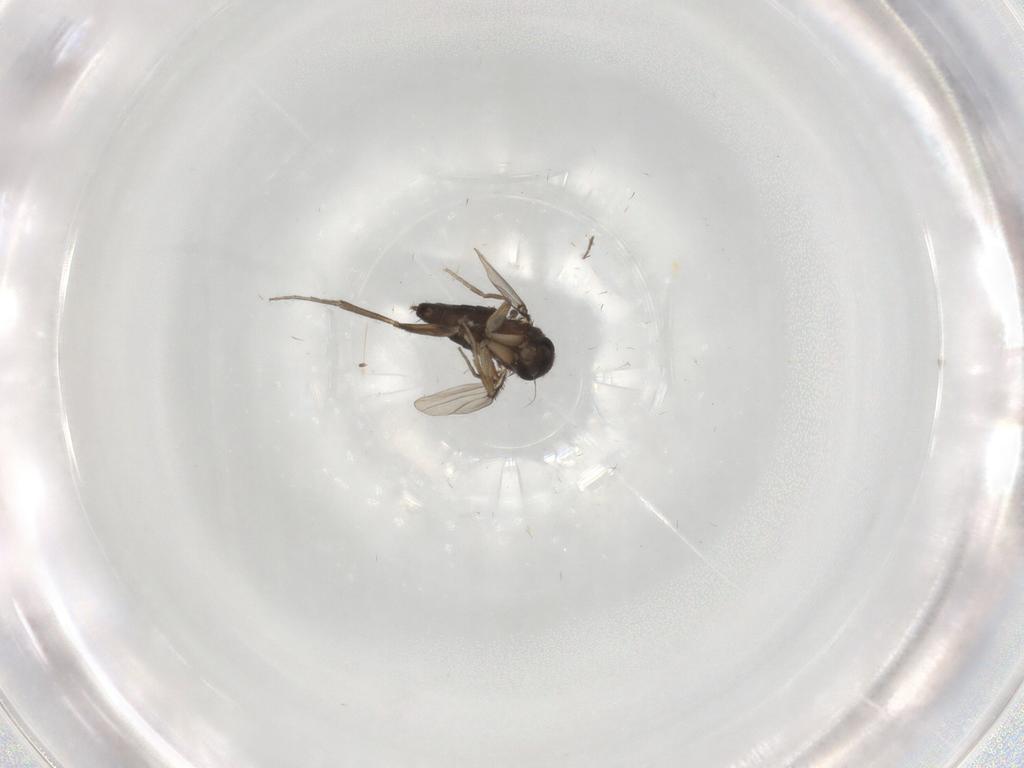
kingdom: Animalia
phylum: Arthropoda
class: Insecta
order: Diptera
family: Phoridae
